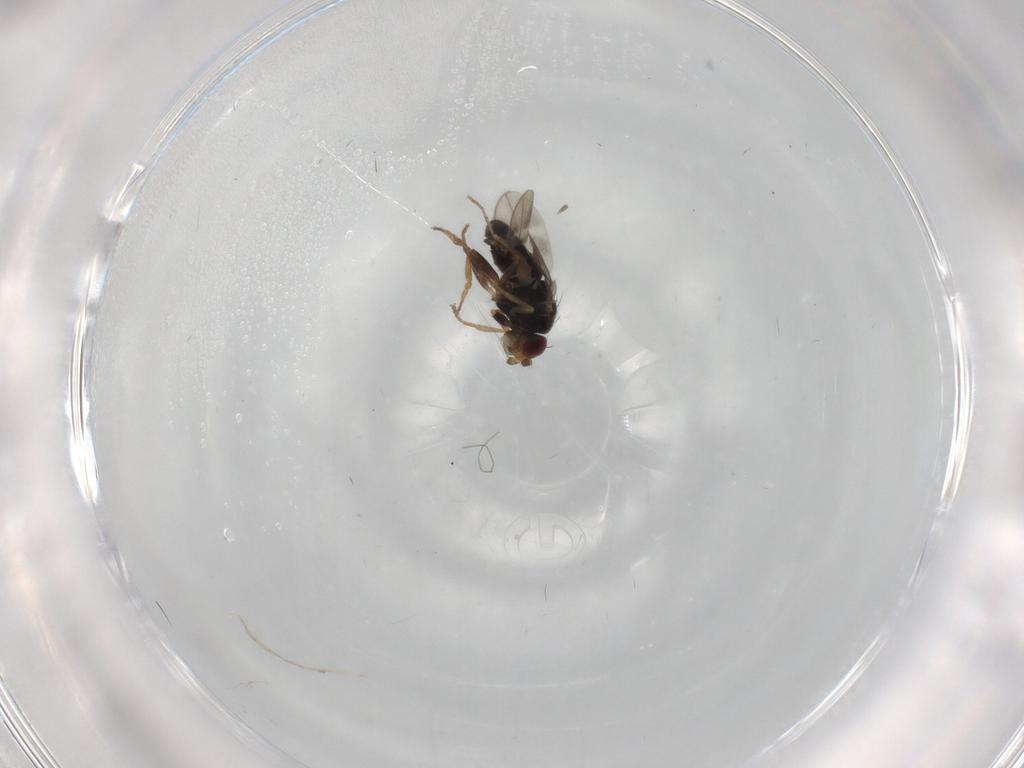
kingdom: Animalia
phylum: Arthropoda
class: Insecta
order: Diptera
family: Sphaeroceridae
